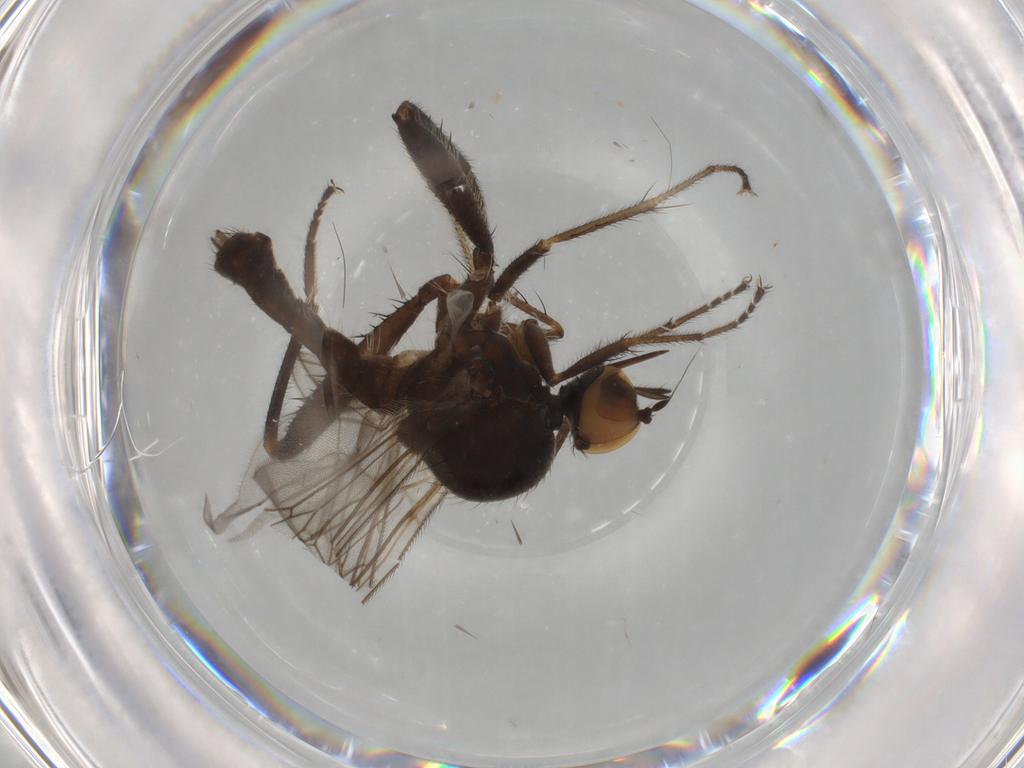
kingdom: Animalia
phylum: Arthropoda
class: Insecta
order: Diptera
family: Hybotidae
